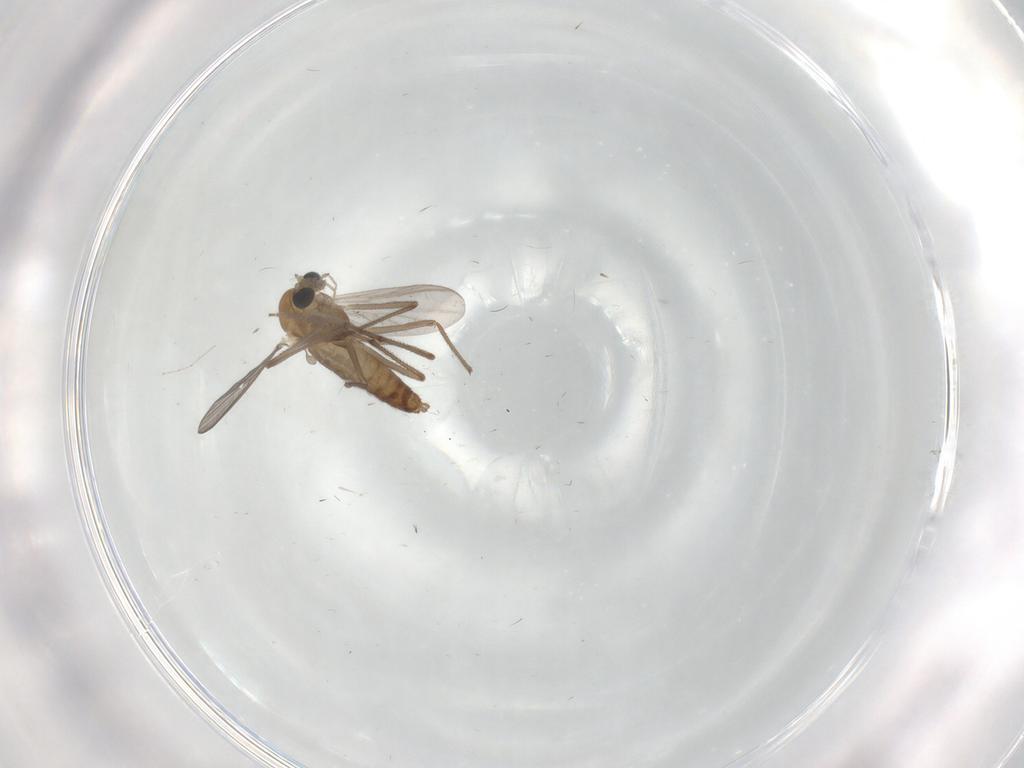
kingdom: Animalia
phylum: Arthropoda
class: Insecta
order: Diptera
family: Chironomidae
